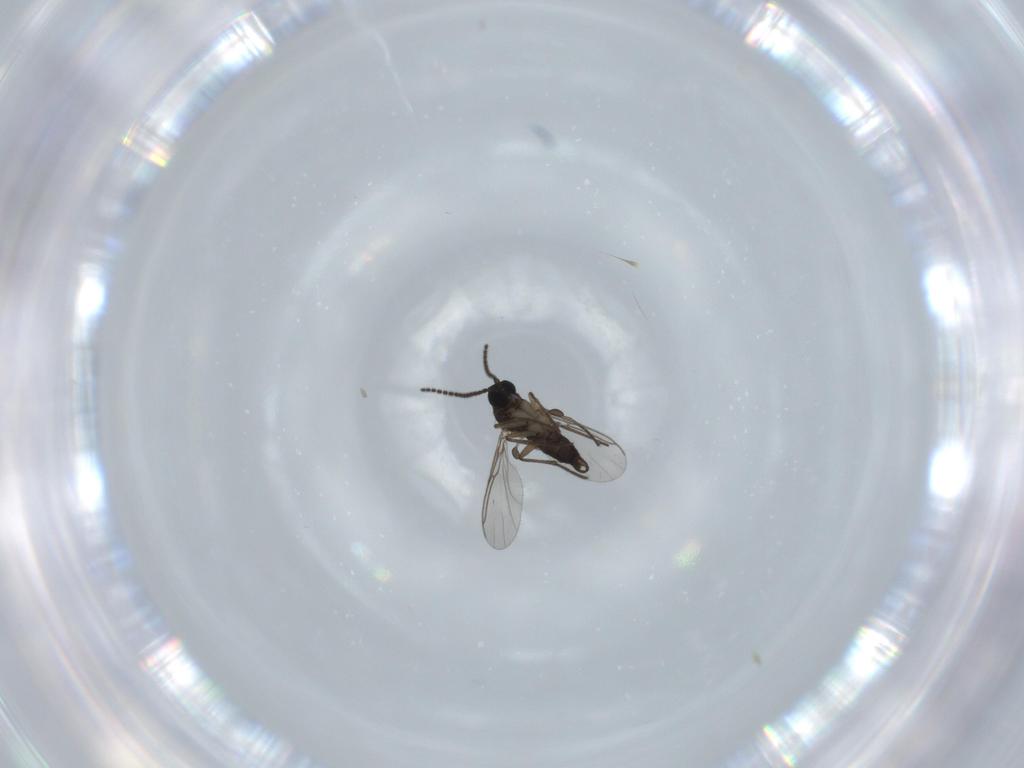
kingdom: Animalia
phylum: Arthropoda
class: Insecta
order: Diptera
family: Sciaridae
